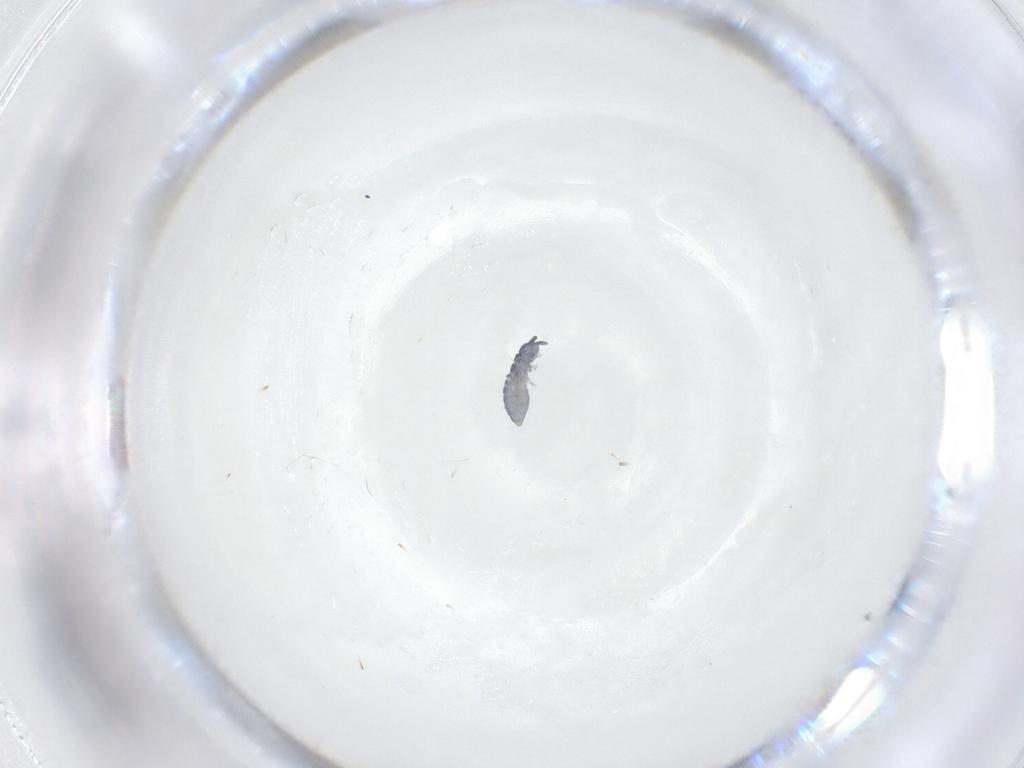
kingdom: Animalia
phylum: Arthropoda
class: Collembola
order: Poduromorpha
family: Hypogastruridae
